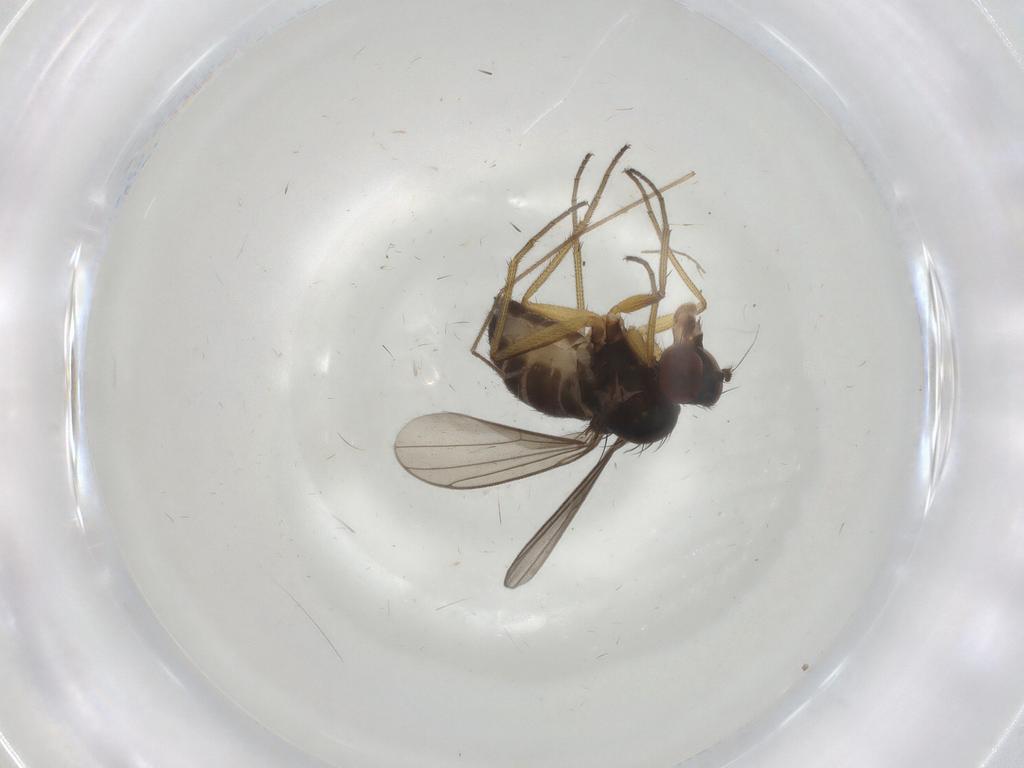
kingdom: Animalia
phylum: Arthropoda
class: Insecta
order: Diptera
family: Dolichopodidae
